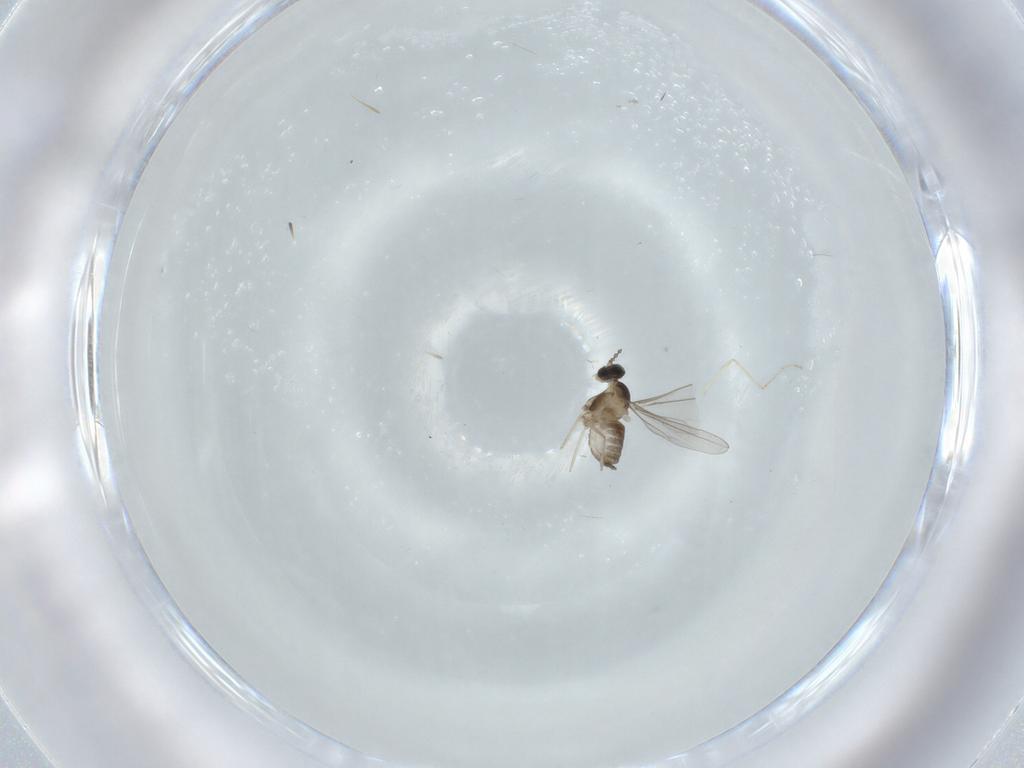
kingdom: Animalia
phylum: Arthropoda
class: Insecta
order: Diptera
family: Cecidomyiidae
